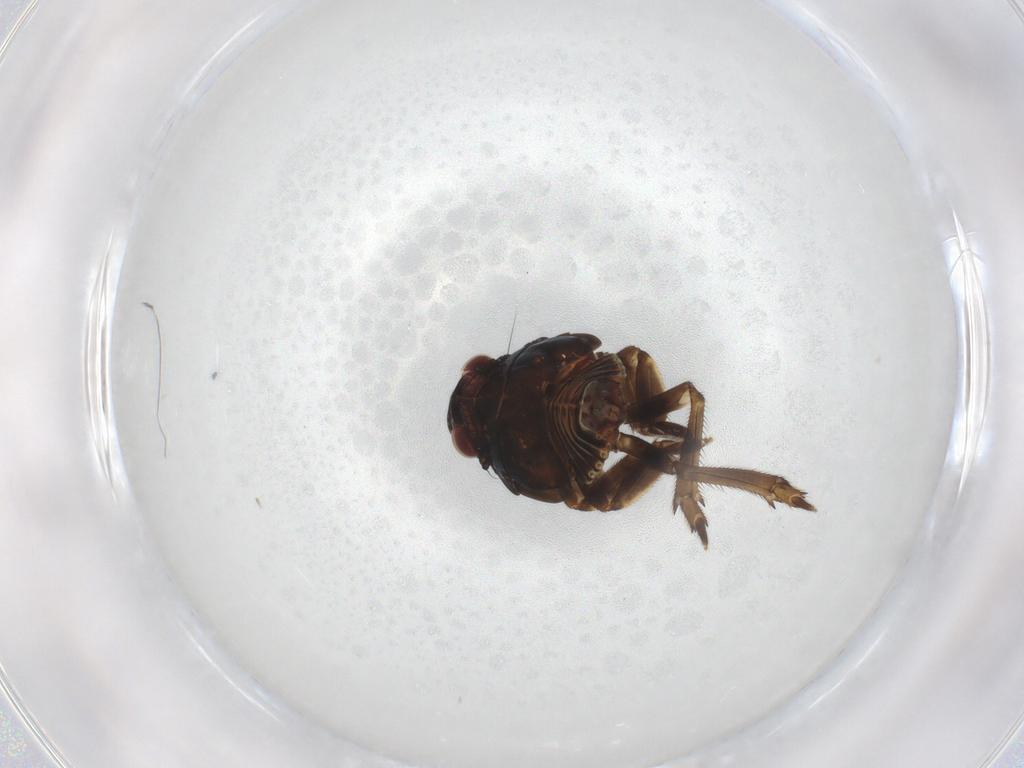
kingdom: Animalia
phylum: Arthropoda
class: Insecta
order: Hemiptera
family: Fulgoroidea_incertae_sedis
